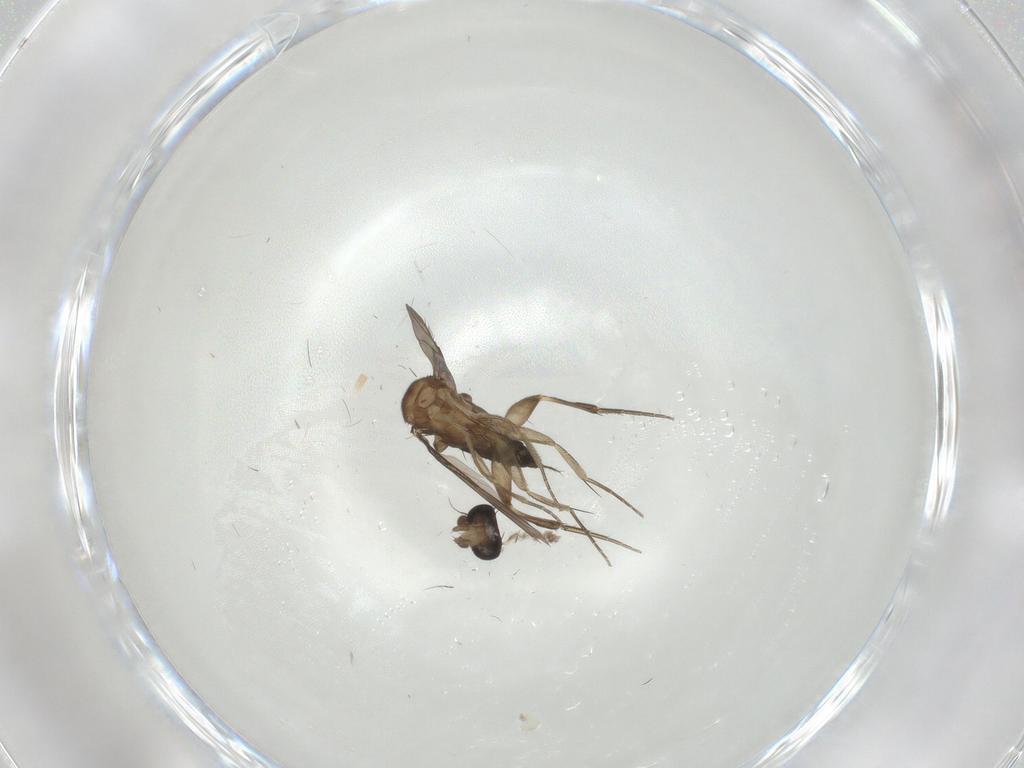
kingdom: Animalia
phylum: Arthropoda
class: Insecta
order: Diptera
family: Phoridae
